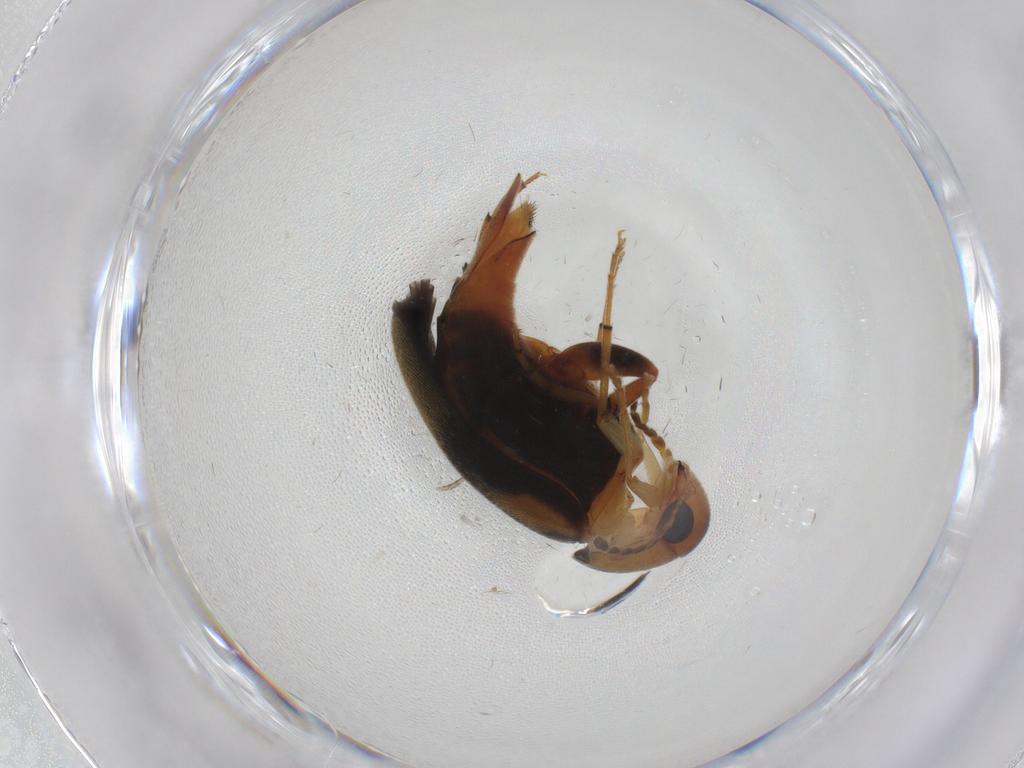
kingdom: Animalia
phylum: Arthropoda
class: Insecta
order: Coleoptera
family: Mordellidae
